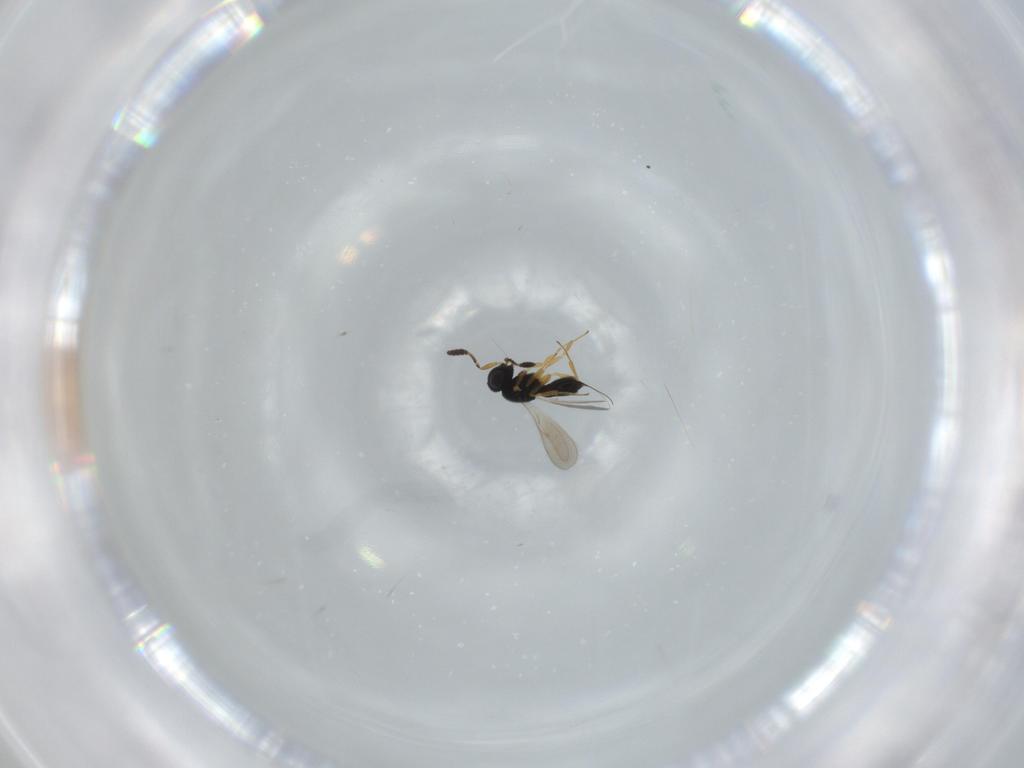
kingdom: Animalia
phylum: Arthropoda
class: Insecta
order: Hymenoptera
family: Scelionidae
